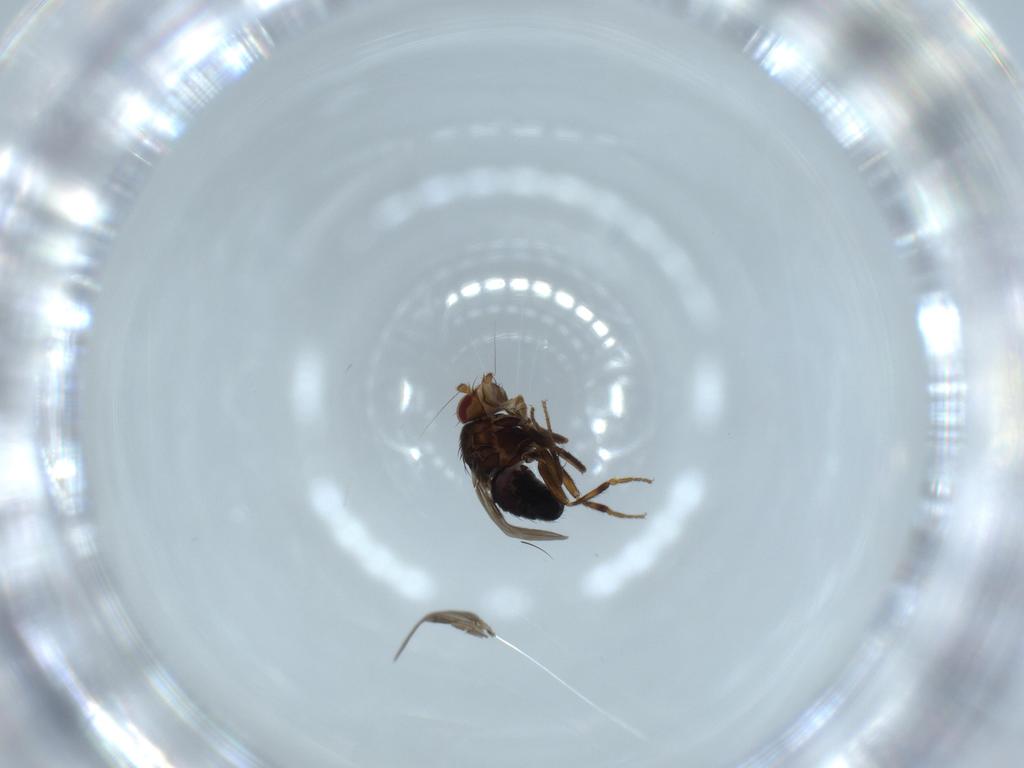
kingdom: Animalia
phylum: Arthropoda
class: Insecta
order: Diptera
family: Sphaeroceridae
